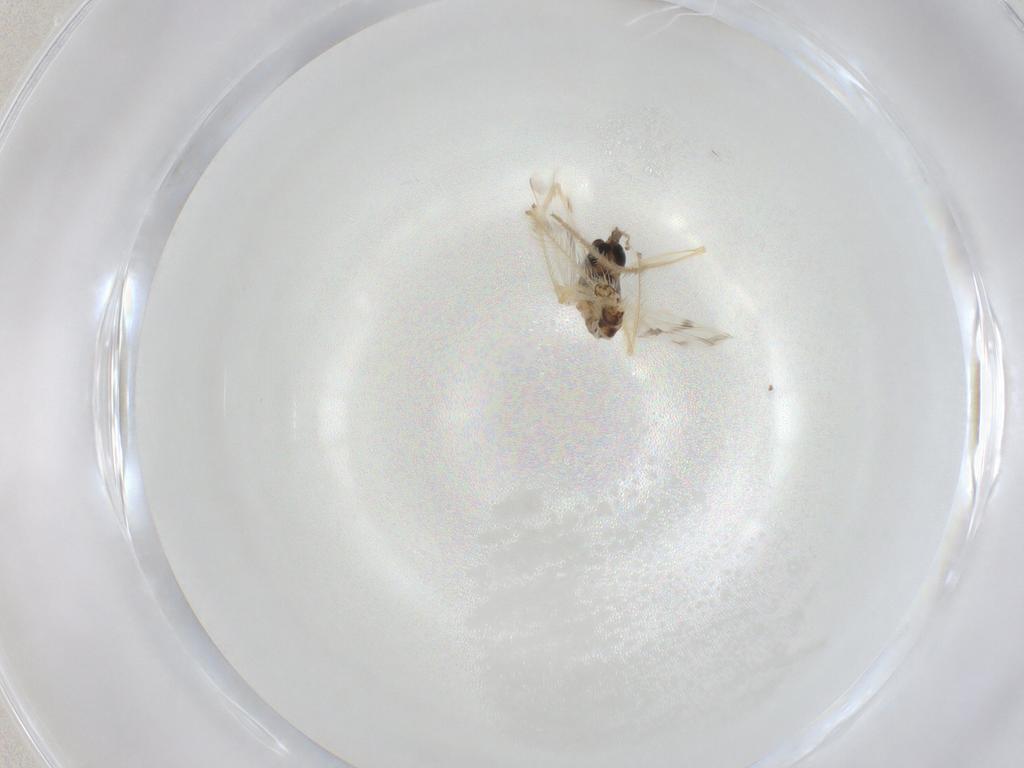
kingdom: Animalia
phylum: Arthropoda
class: Insecta
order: Diptera
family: Chironomidae
